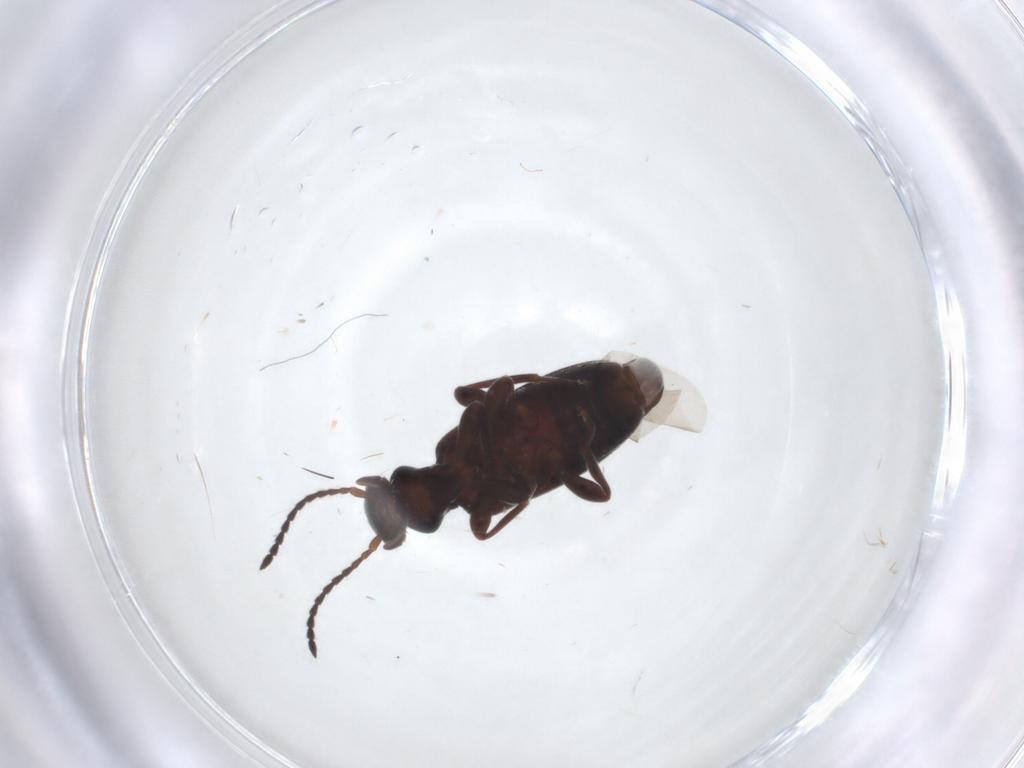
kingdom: Animalia
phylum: Arthropoda
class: Insecta
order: Coleoptera
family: Anthicidae
